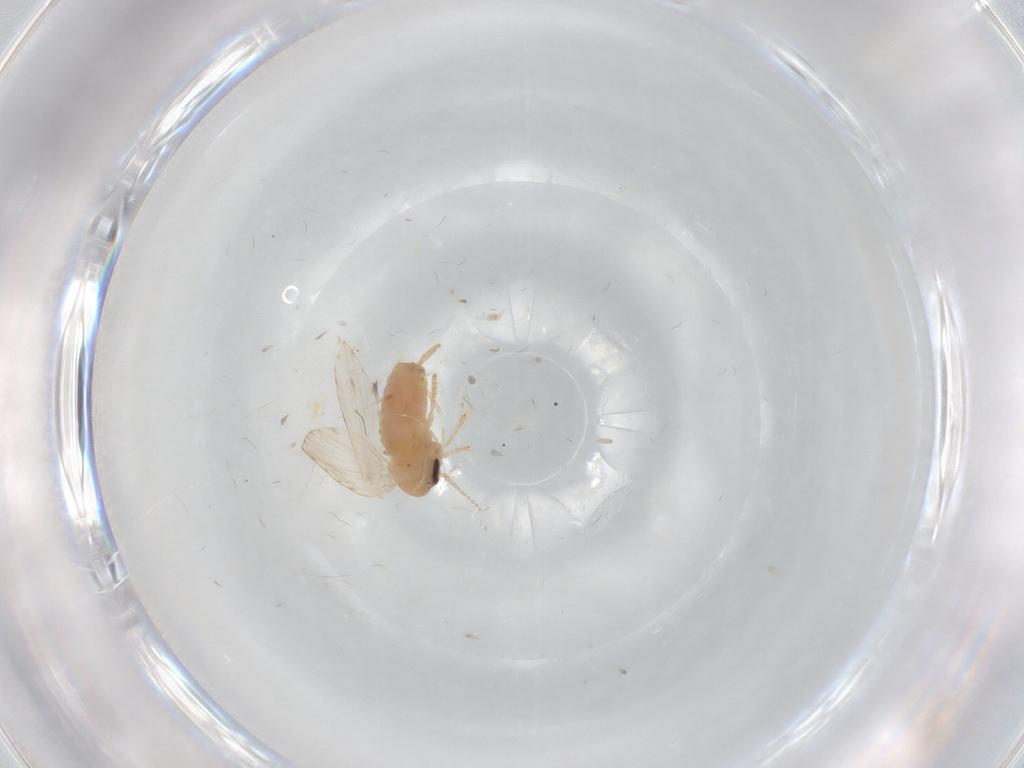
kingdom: Animalia
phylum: Arthropoda
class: Insecta
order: Diptera
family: Psychodidae
